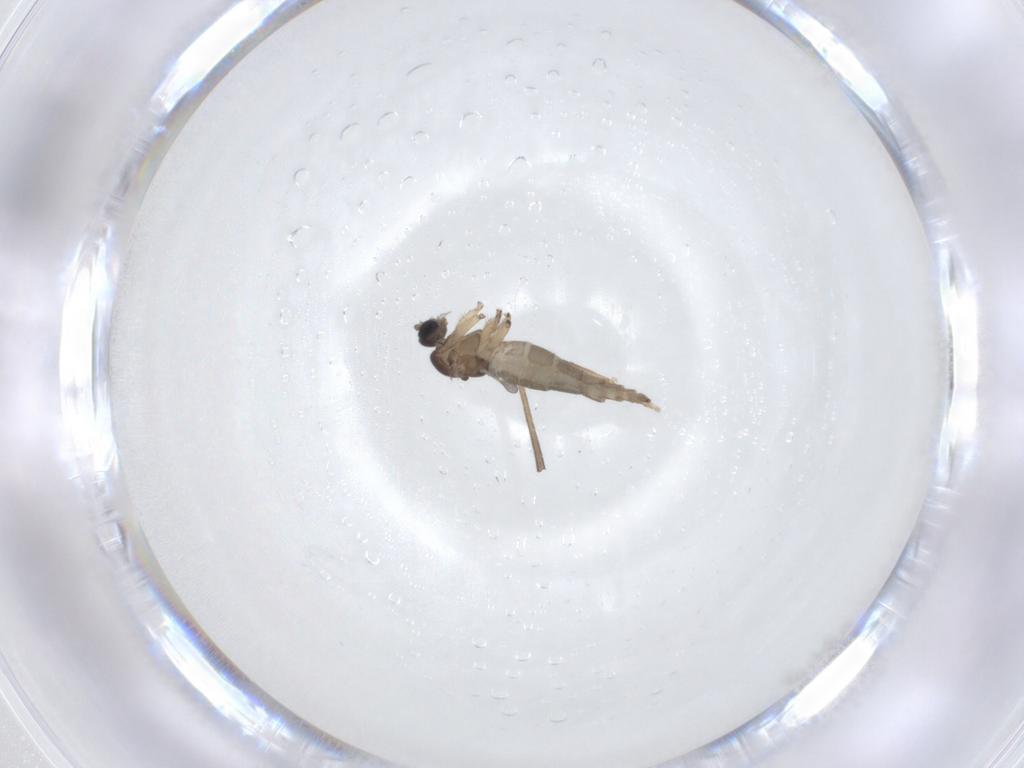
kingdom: Animalia
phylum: Arthropoda
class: Insecta
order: Diptera
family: Sciaridae
